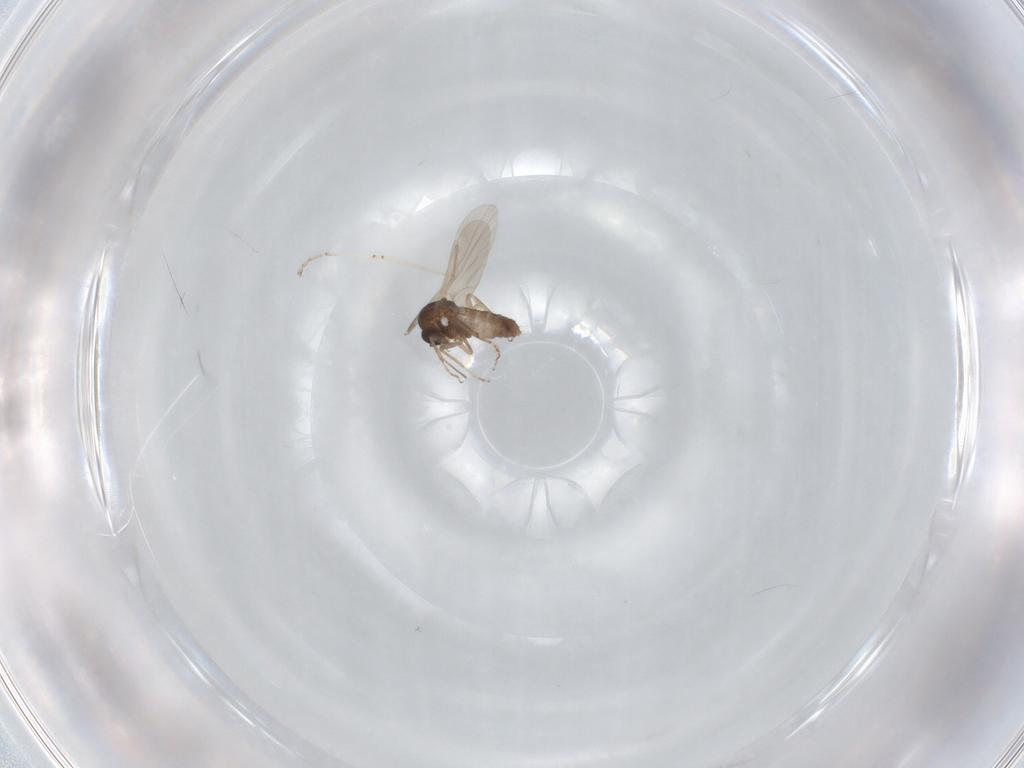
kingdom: Animalia
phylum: Arthropoda
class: Insecta
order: Diptera
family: Ceratopogonidae
